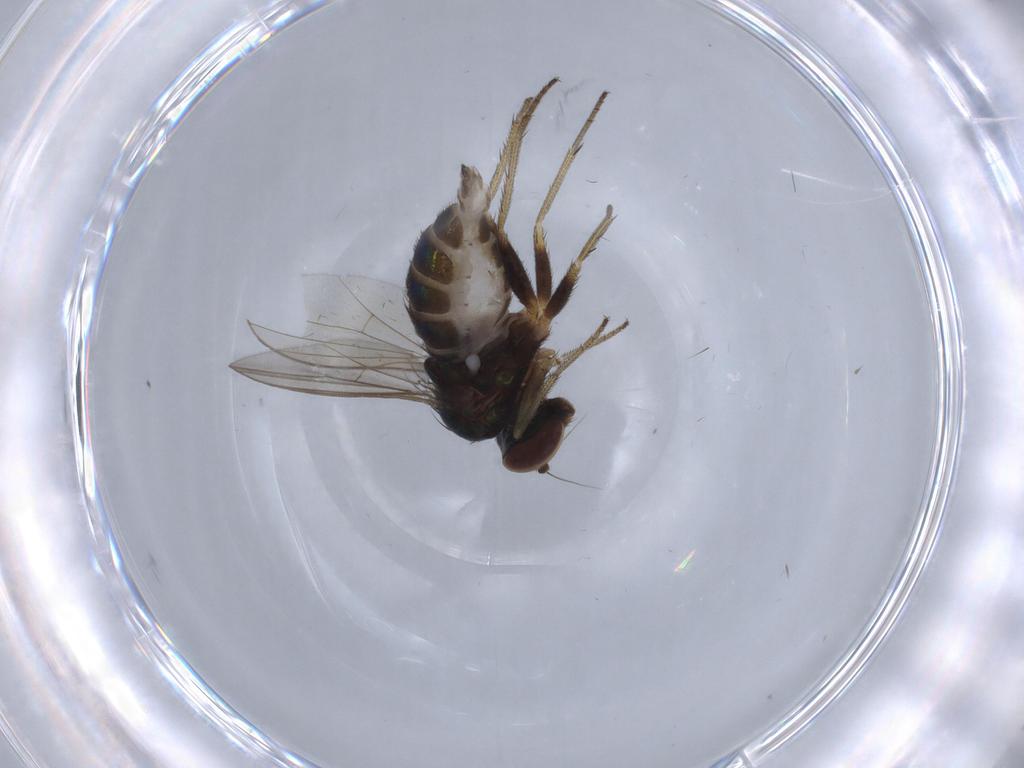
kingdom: Animalia
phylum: Arthropoda
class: Insecta
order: Diptera
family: Dolichopodidae
